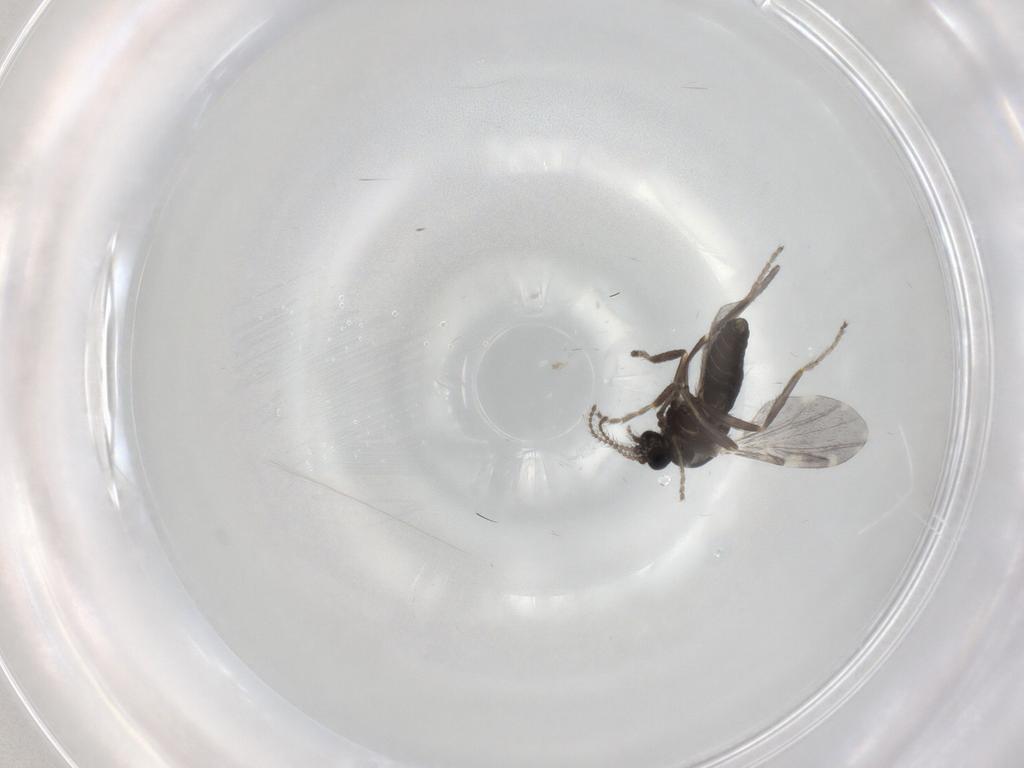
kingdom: Animalia
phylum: Arthropoda
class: Insecta
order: Diptera
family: Ceratopogonidae
